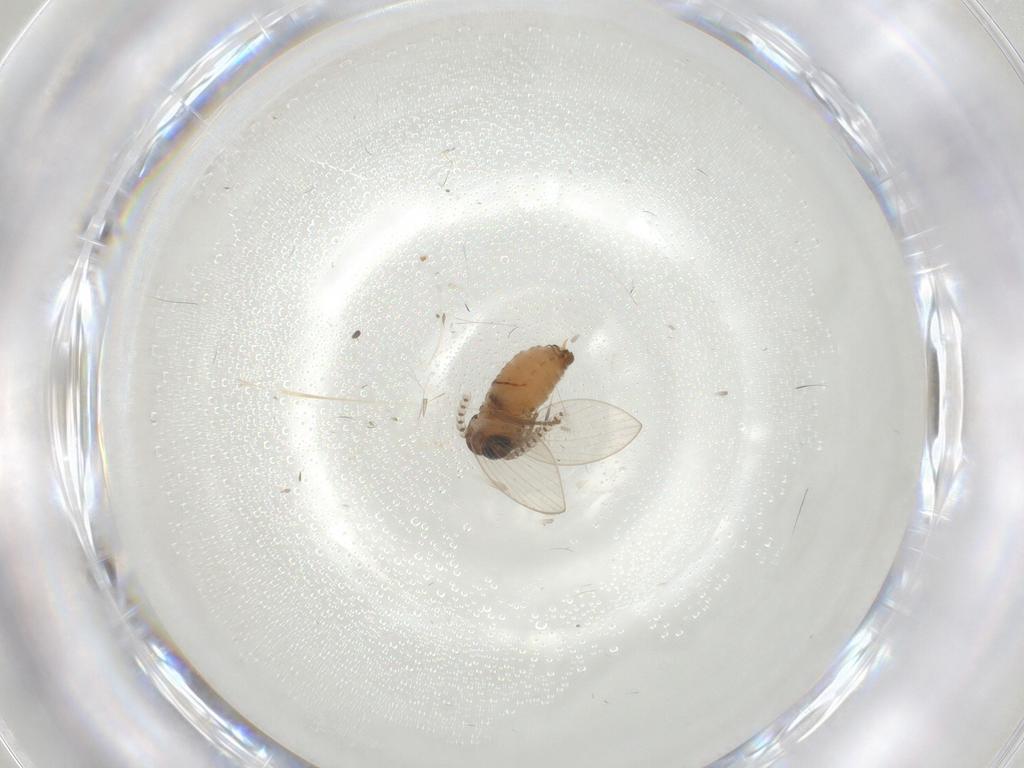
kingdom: Animalia
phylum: Arthropoda
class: Insecta
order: Diptera
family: Psychodidae
